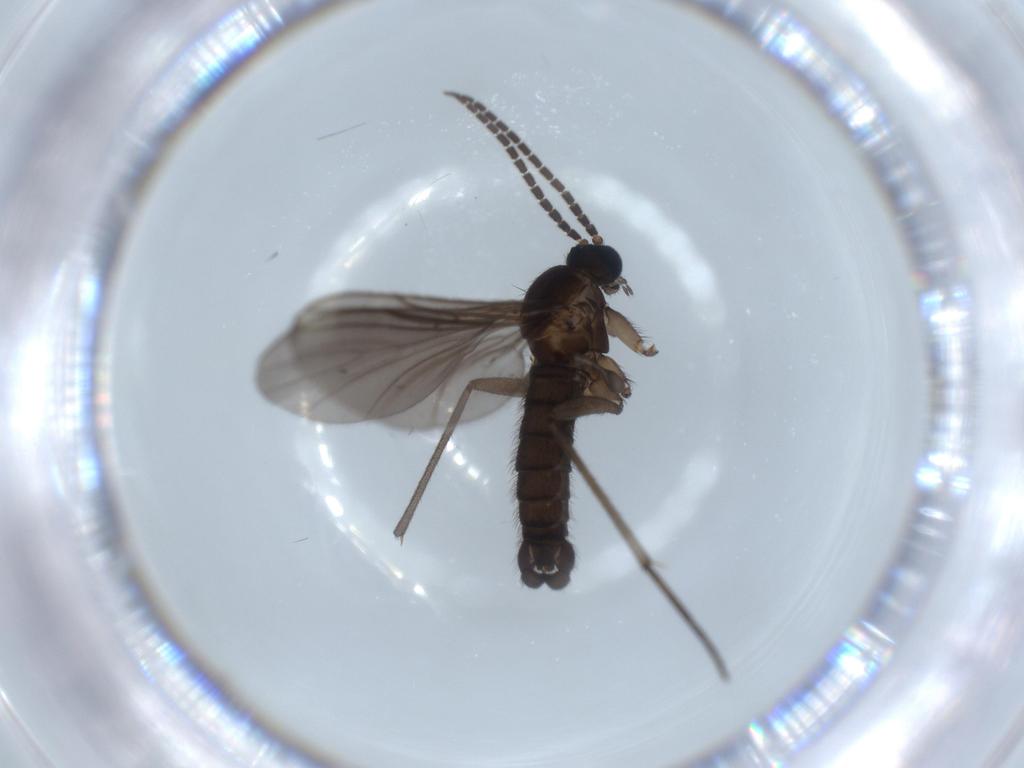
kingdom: Animalia
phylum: Arthropoda
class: Insecta
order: Diptera
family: Sciaridae
